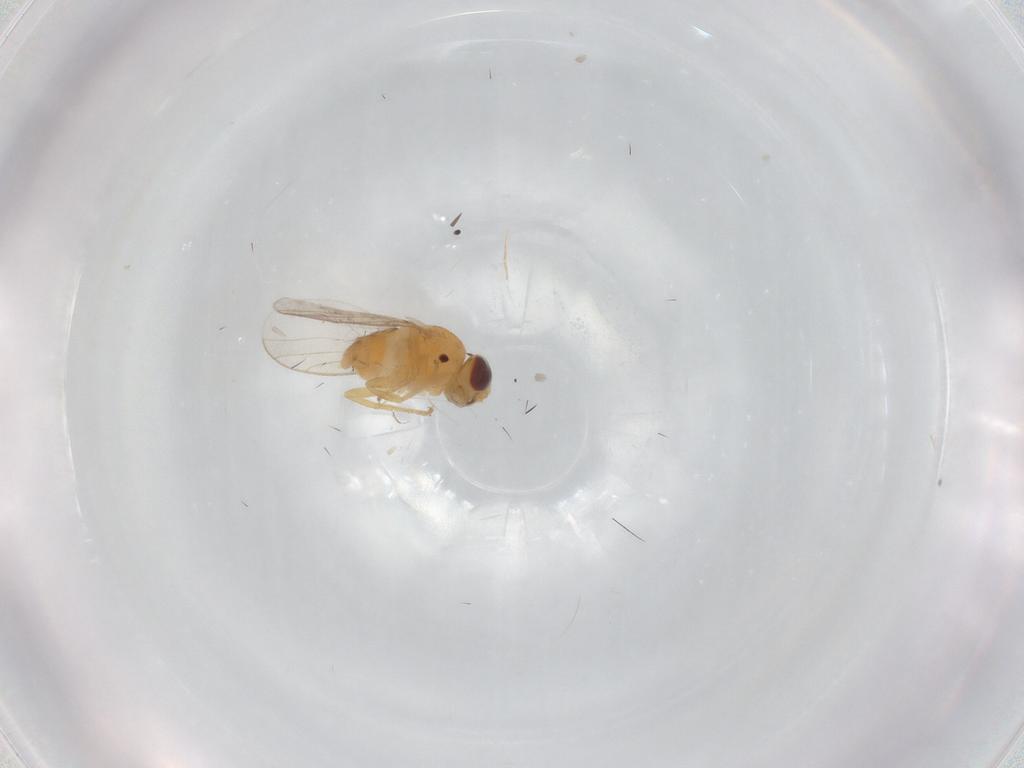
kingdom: Animalia
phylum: Arthropoda
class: Insecta
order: Diptera
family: Chloropidae
